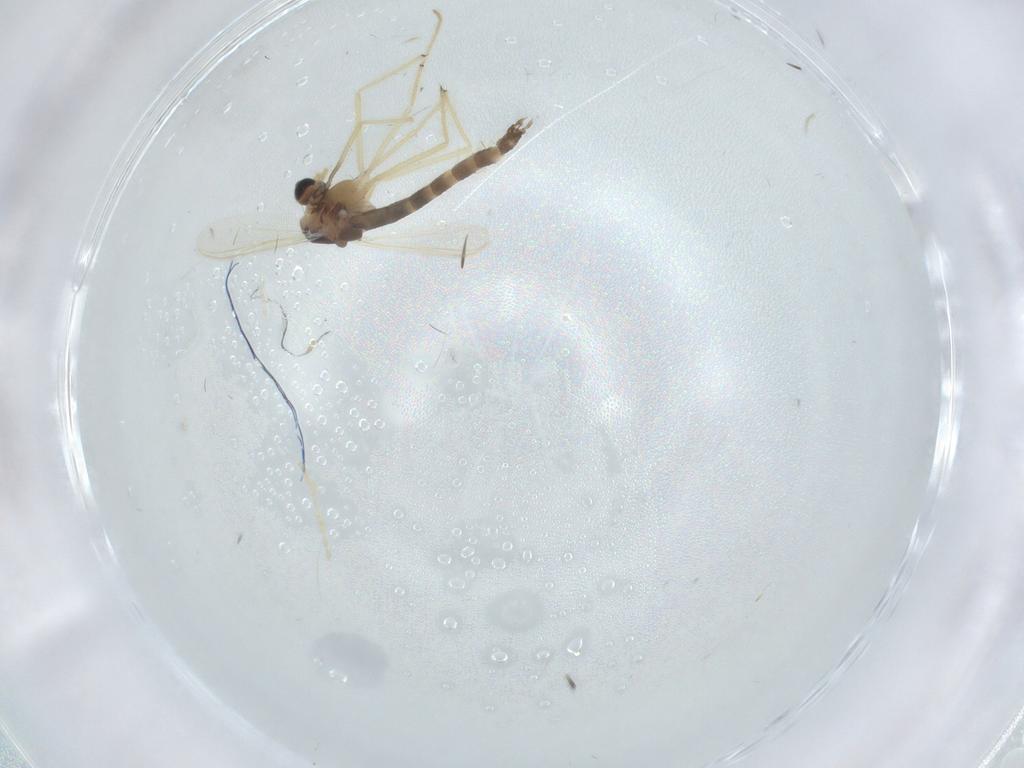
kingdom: Animalia
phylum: Arthropoda
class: Insecta
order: Diptera
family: Chironomidae
